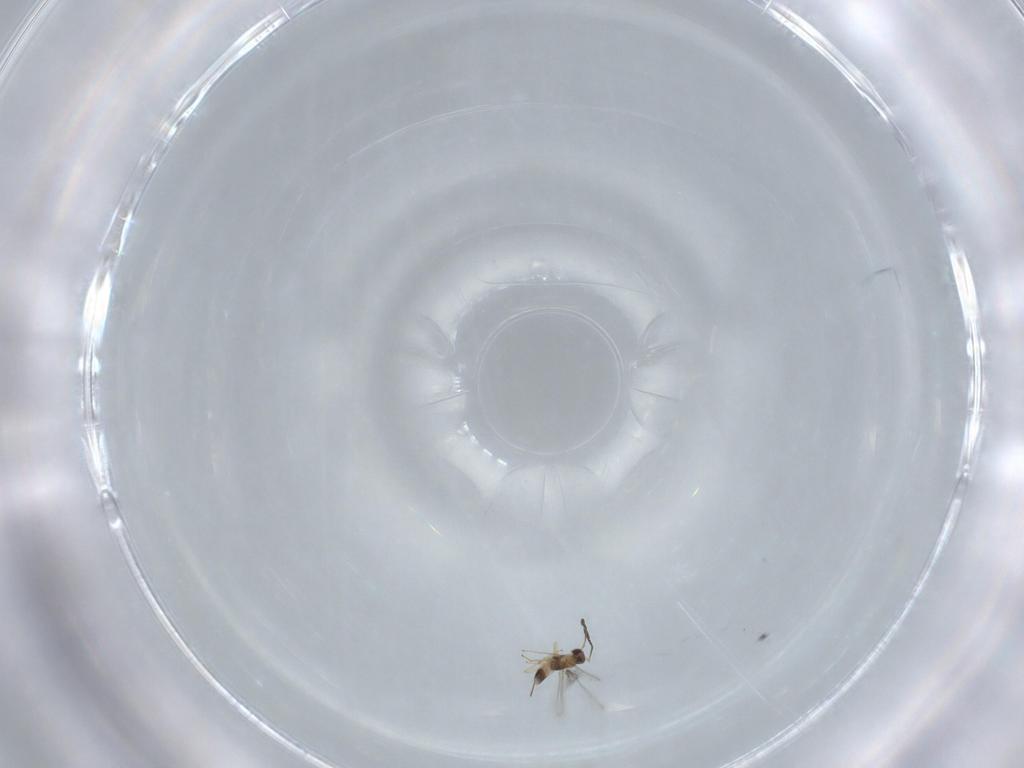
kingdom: Animalia
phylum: Arthropoda
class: Insecta
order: Hymenoptera
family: Mymaridae
